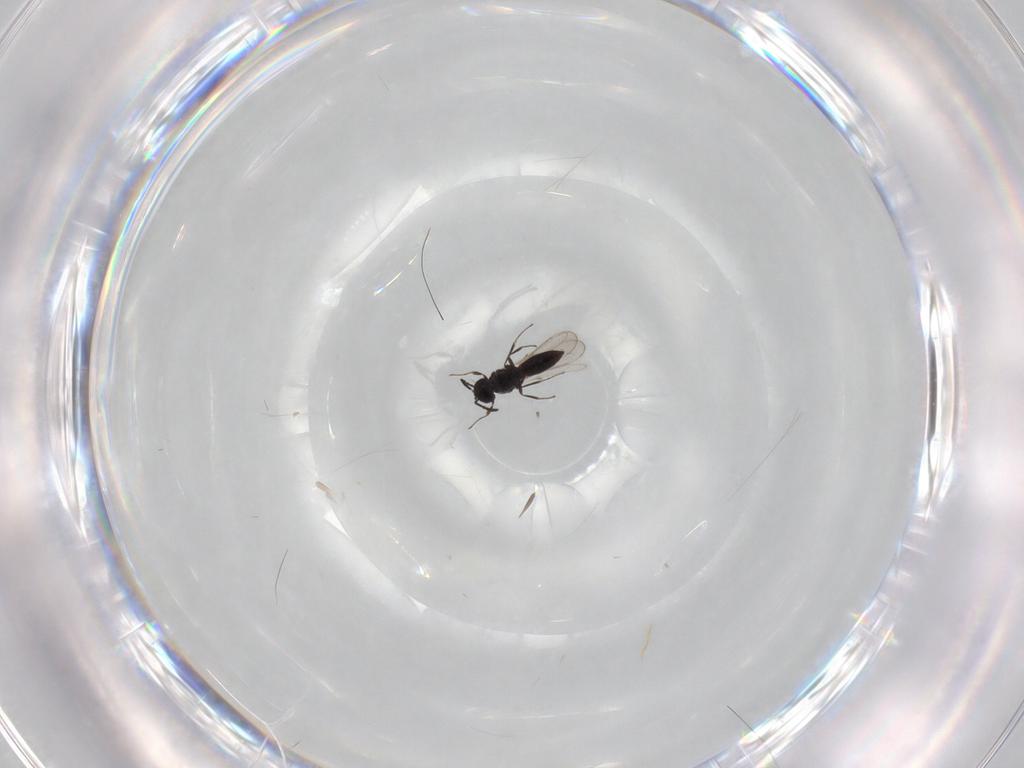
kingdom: Animalia
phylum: Arthropoda
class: Insecta
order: Hymenoptera
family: Scelionidae
